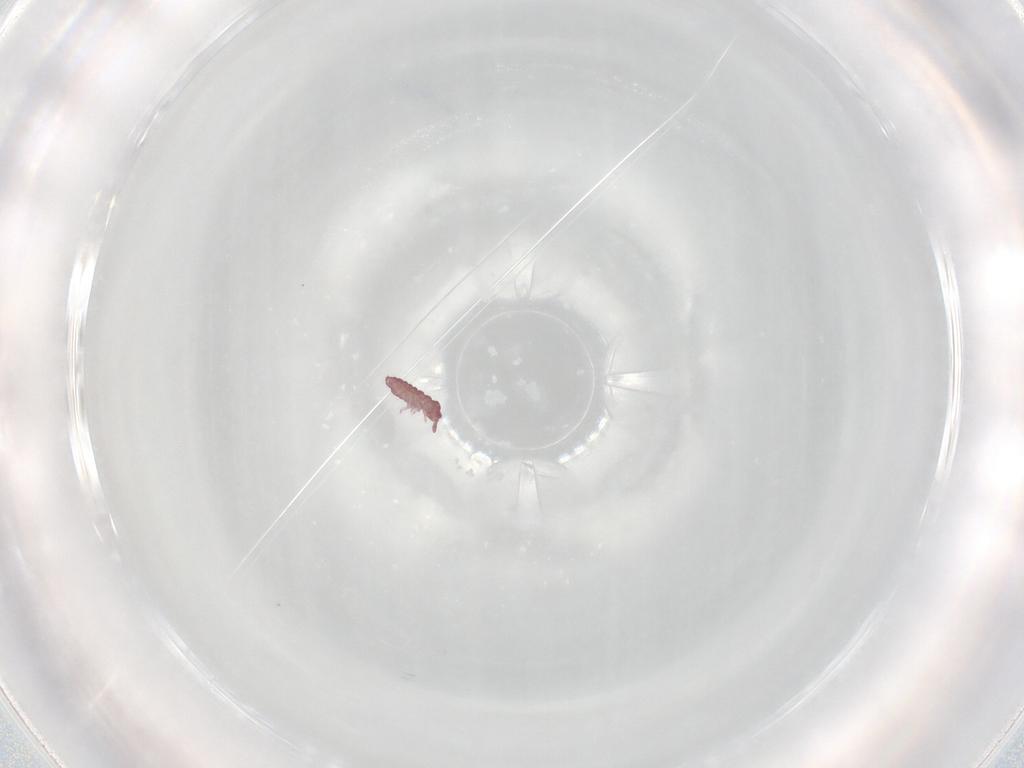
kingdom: Animalia
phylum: Arthropoda
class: Collembola
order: Poduromorpha
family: Hypogastruridae
